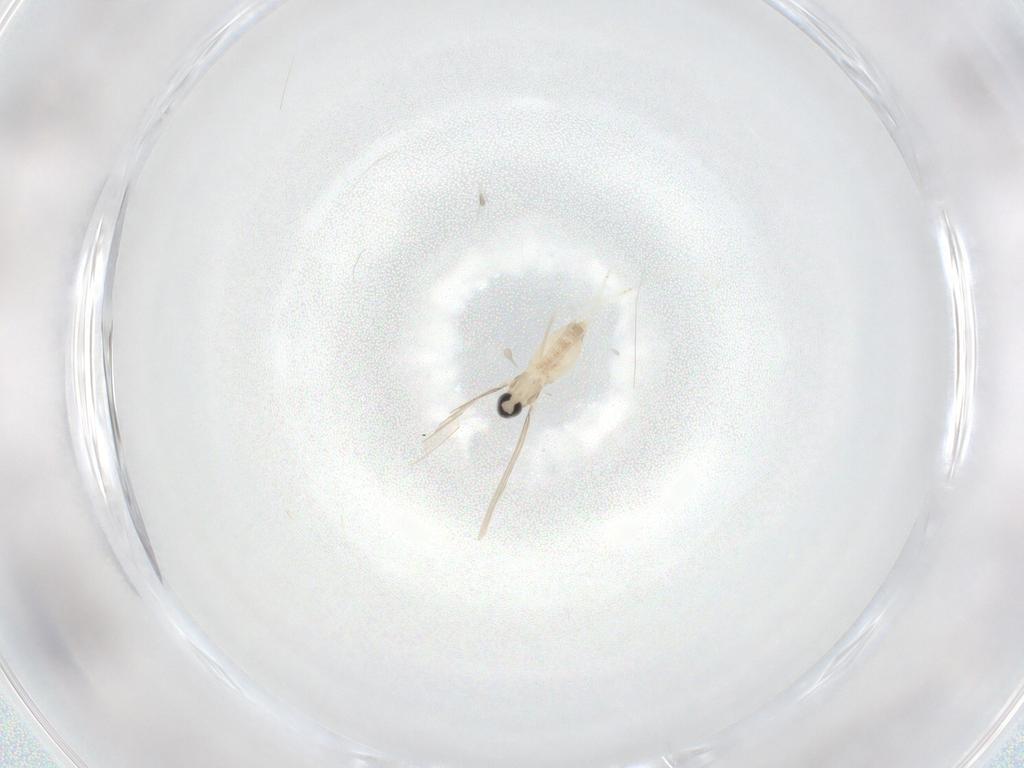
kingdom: Animalia
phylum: Arthropoda
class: Insecta
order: Diptera
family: Cecidomyiidae
